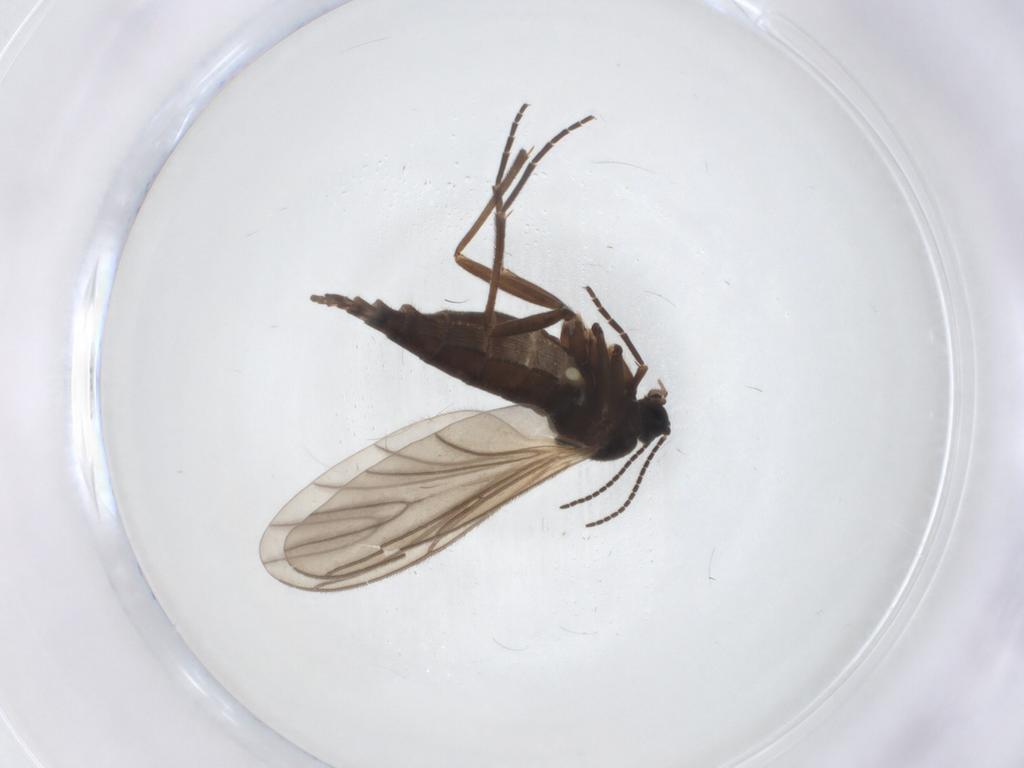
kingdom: Animalia
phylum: Arthropoda
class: Insecta
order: Diptera
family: Sciaridae
